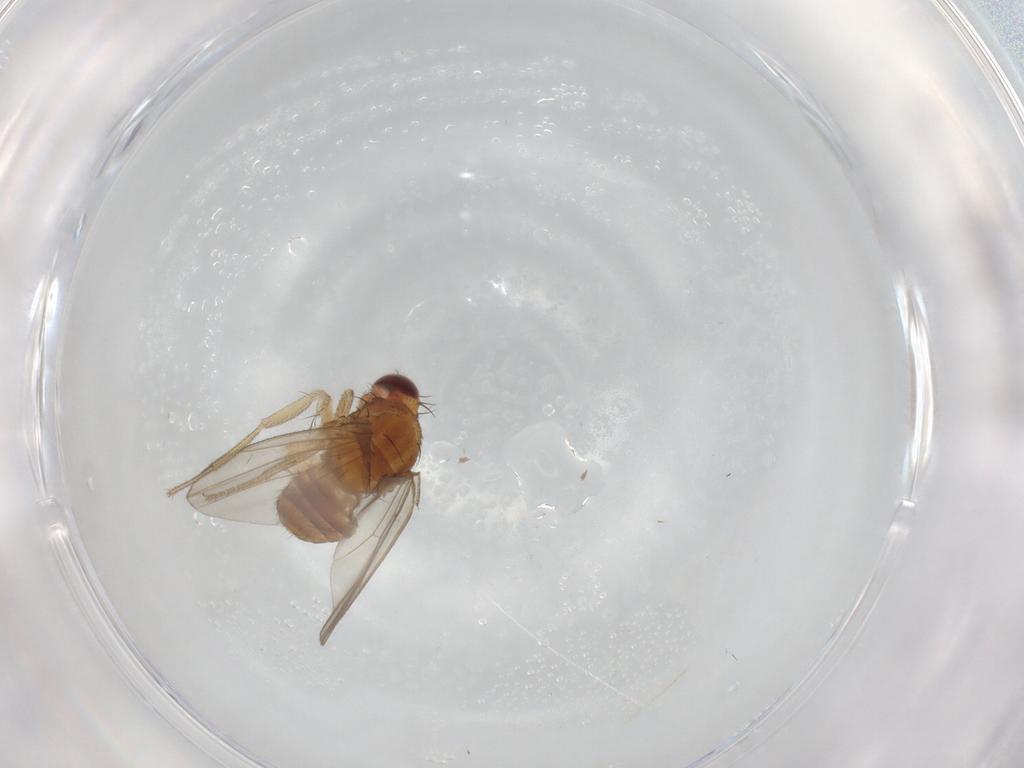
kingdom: Animalia
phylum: Arthropoda
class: Insecta
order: Diptera
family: Drosophilidae
